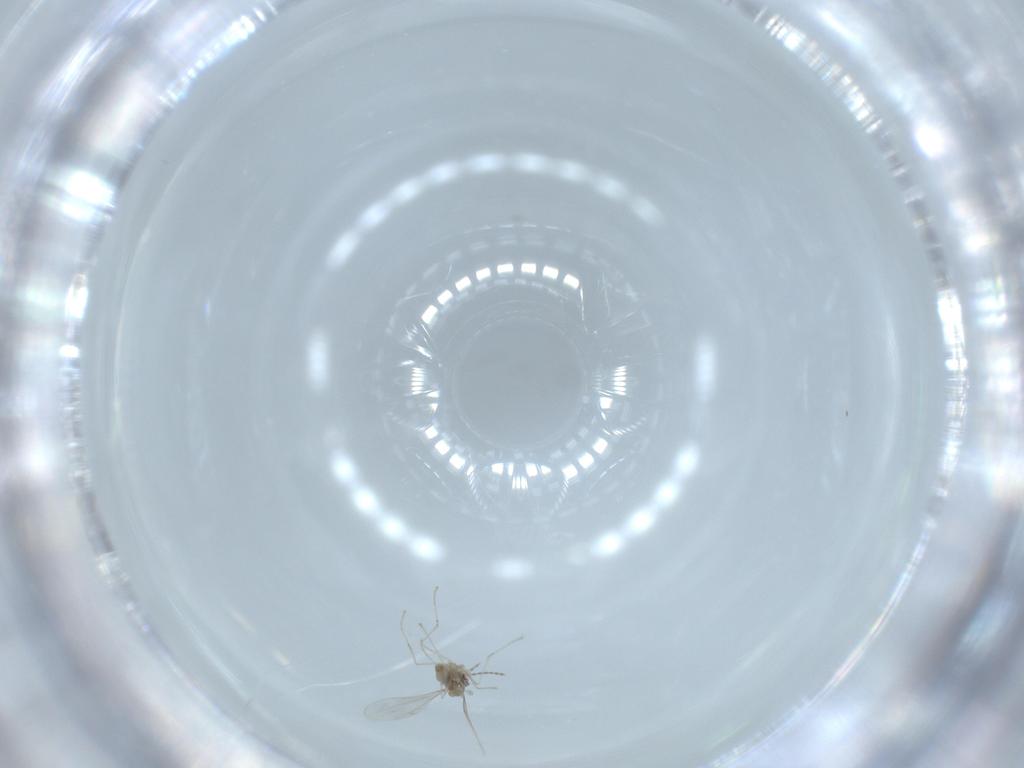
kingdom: Animalia
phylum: Arthropoda
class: Insecta
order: Diptera
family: Cecidomyiidae
